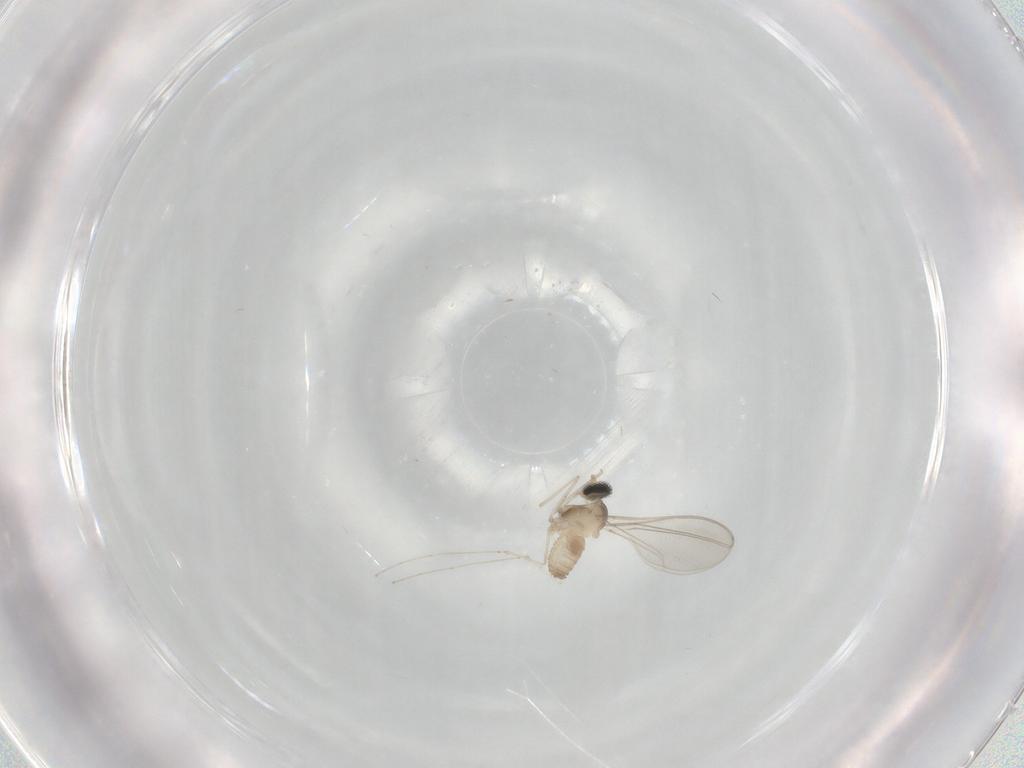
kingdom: Animalia
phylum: Arthropoda
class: Insecta
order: Diptera
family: Cecidomyiidae
